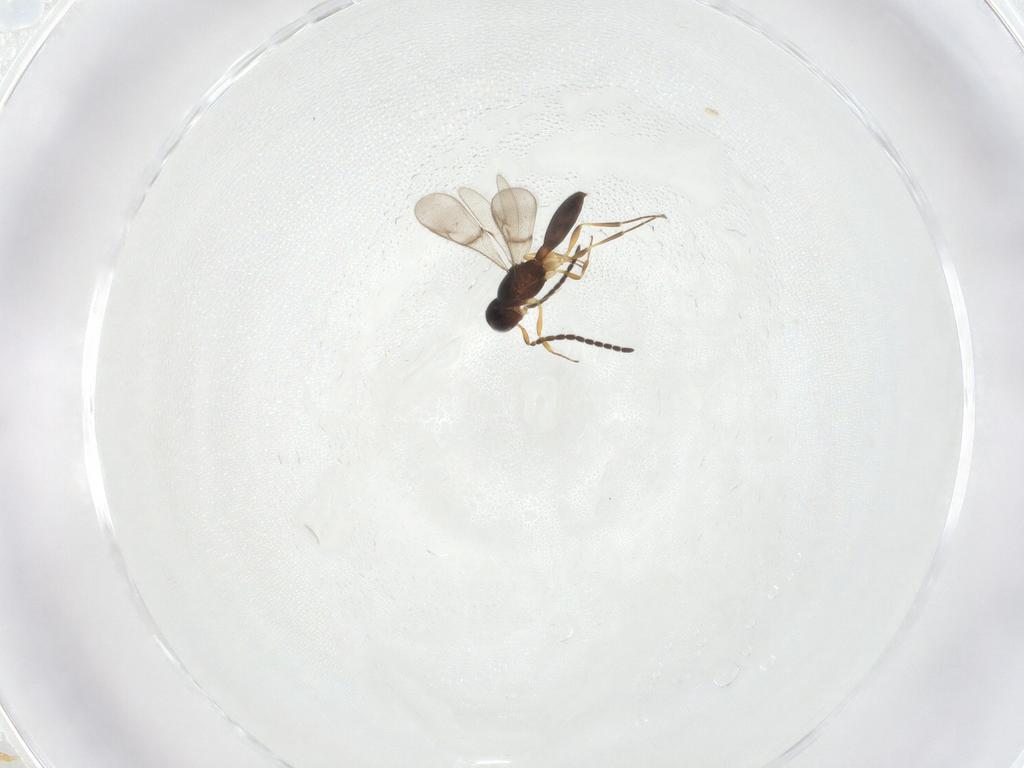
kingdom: Animalia
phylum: Arthropoda
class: Insecta
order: Hymenoptera
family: Scelionidae
